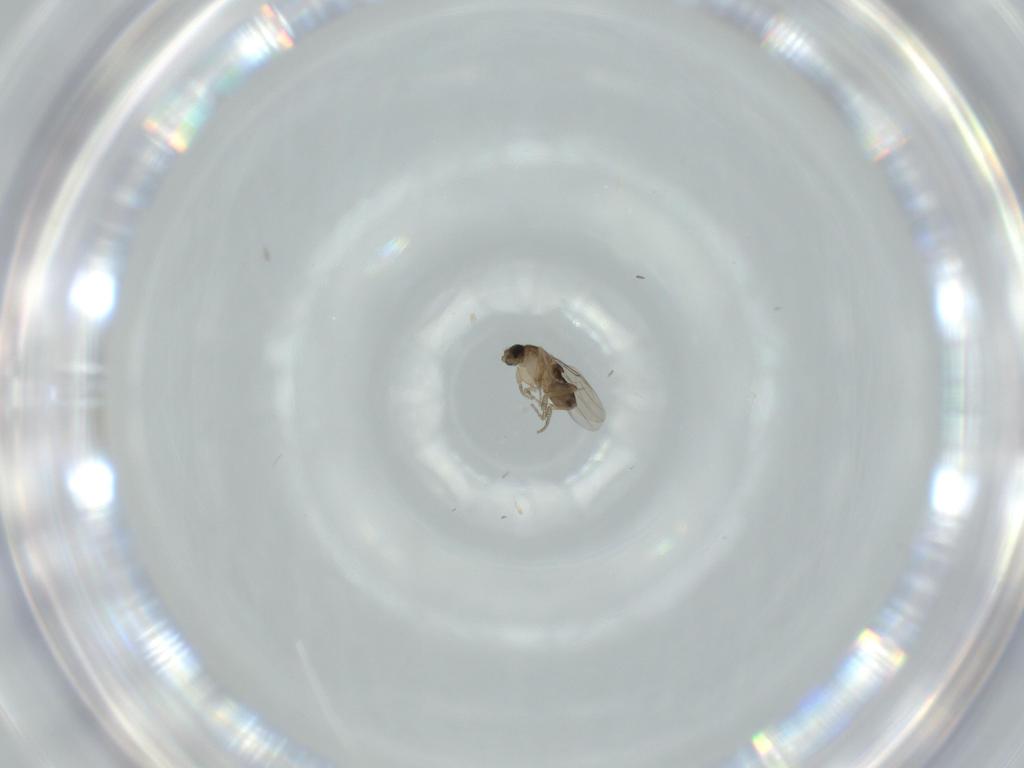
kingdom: Animalia
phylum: Arthropoda
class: Insecta
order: Diptera
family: Phoridae
